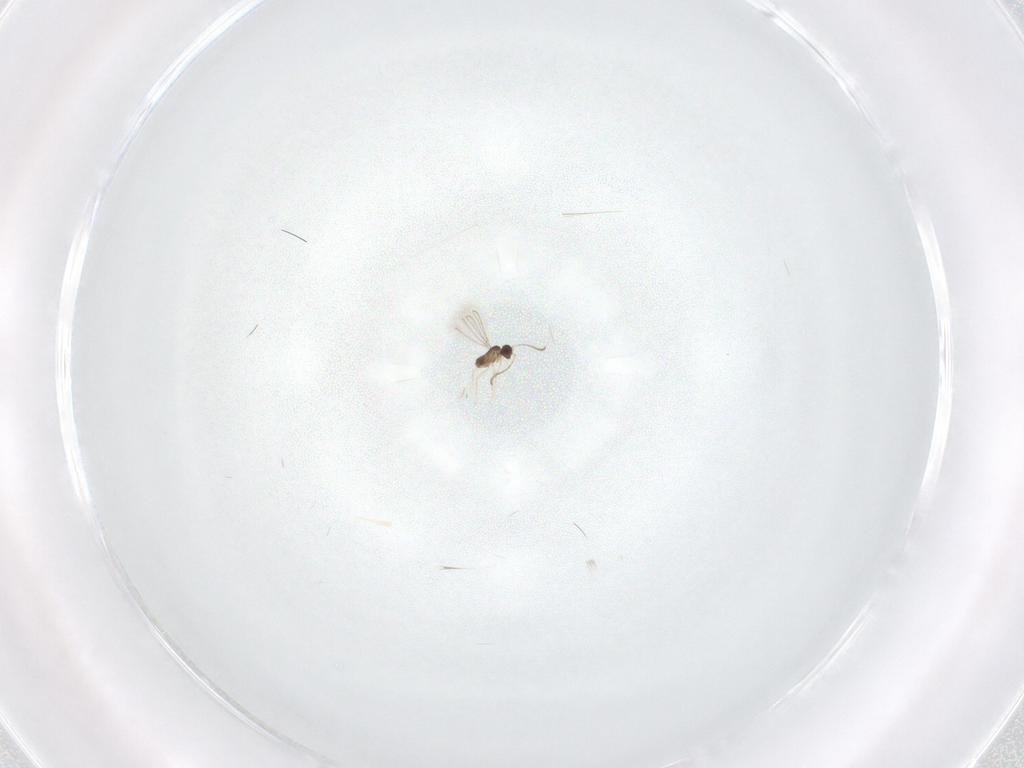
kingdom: Animalia
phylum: Arthropoda
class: Insecta
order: Hymenoptera
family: Formicidae
